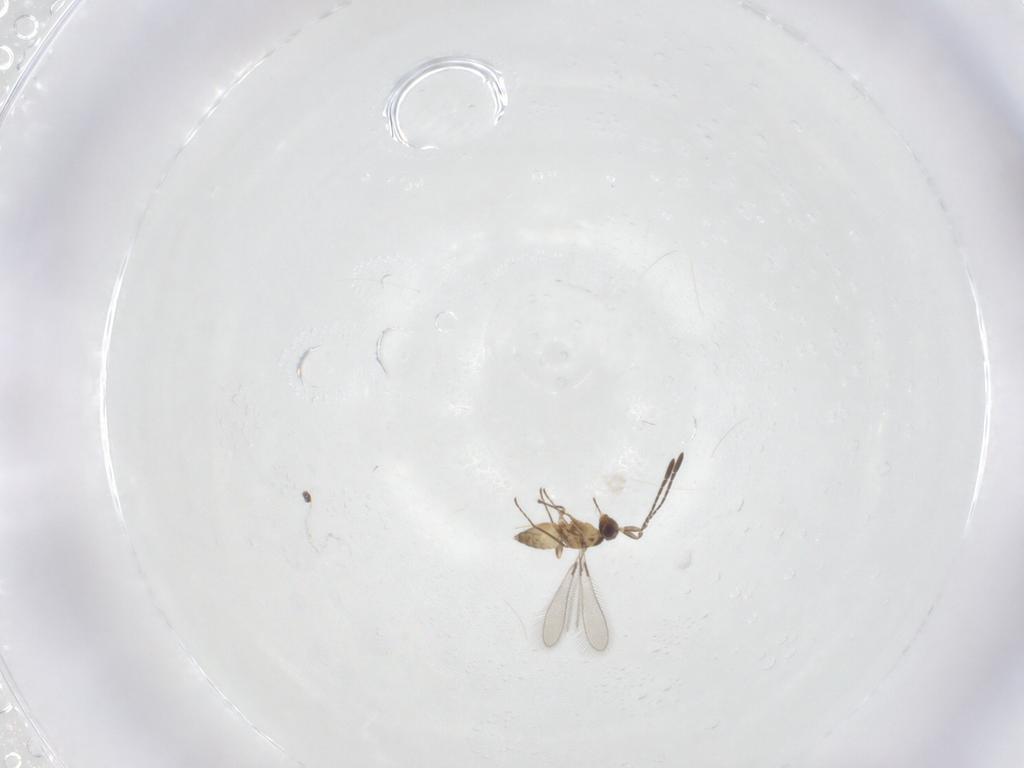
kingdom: Animalia
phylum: Arthropoda
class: Insecta
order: Hymenoptera
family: Mymaridae
